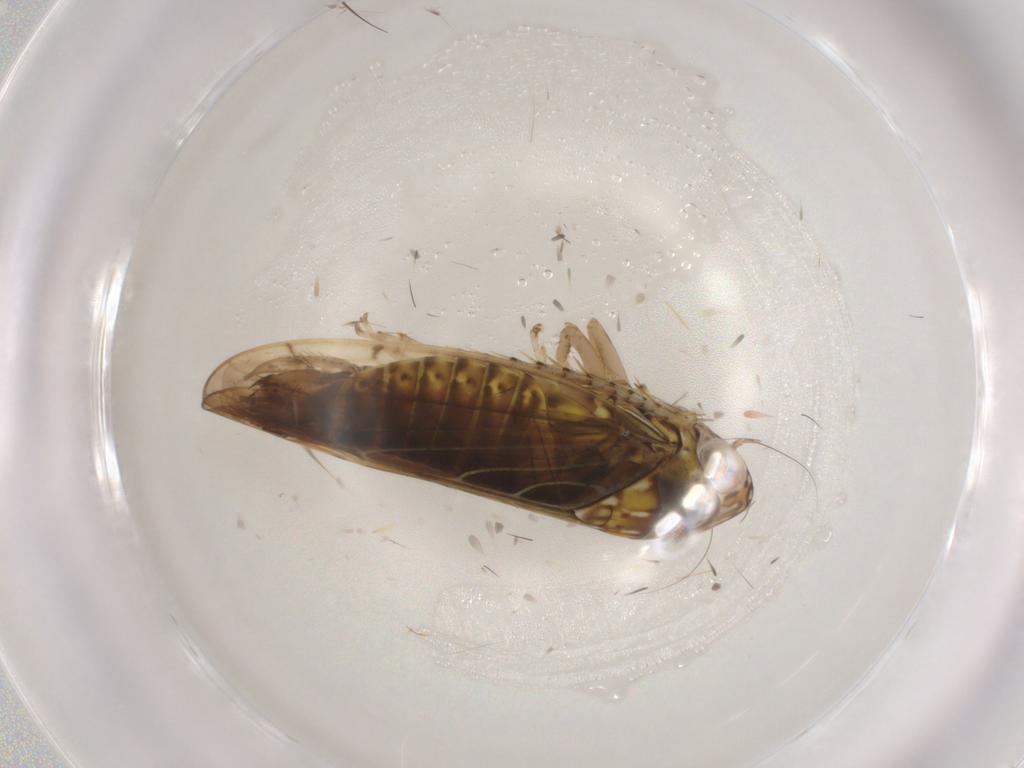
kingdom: Animalia
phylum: Arthropoda
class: Insecta
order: Hemiptera
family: Cicadellidae
